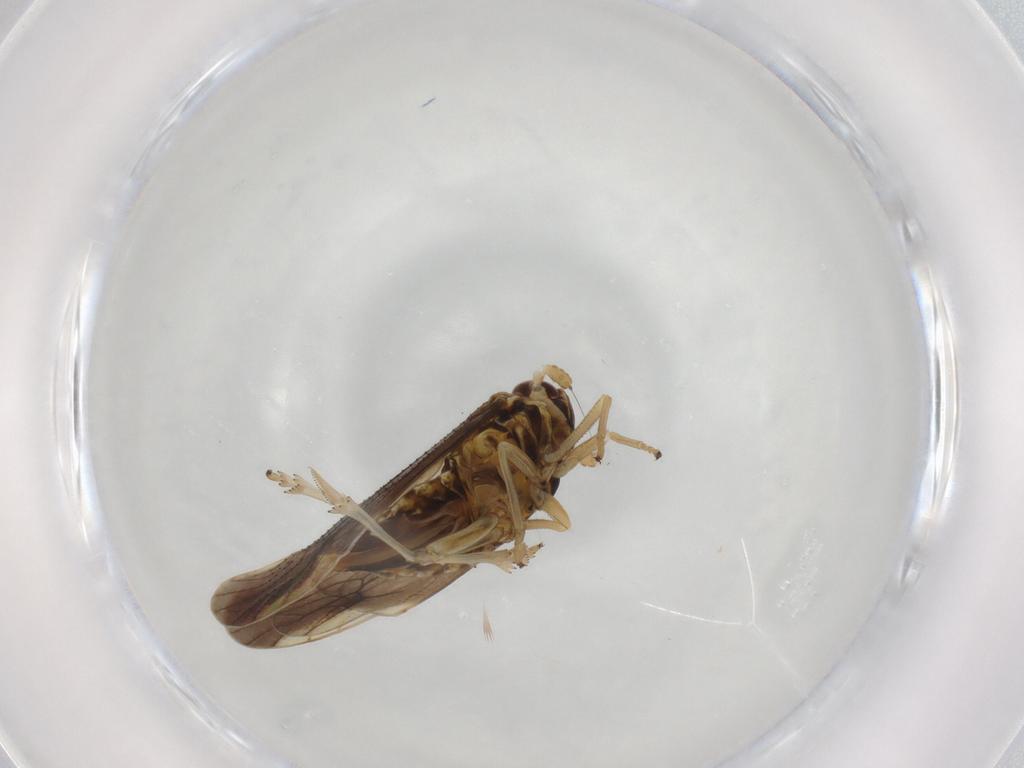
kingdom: Animalia
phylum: Arthropoda
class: Insecta
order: Hemiptera
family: Delphacidae
